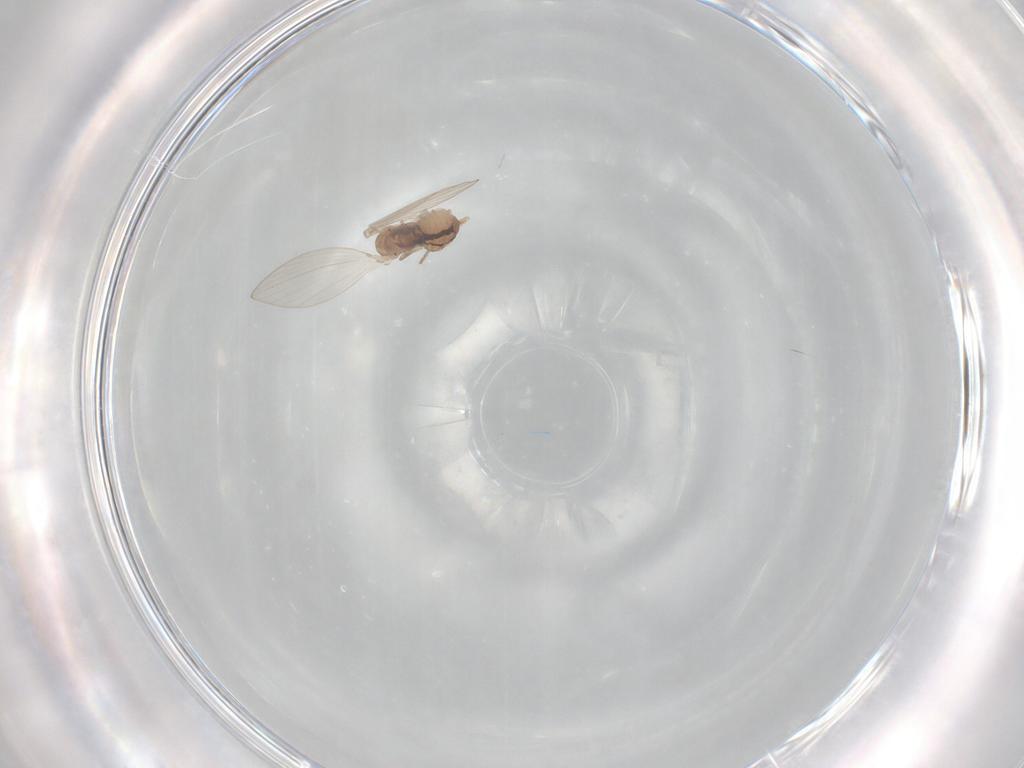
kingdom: Animalia
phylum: Arthropoda
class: Insecta
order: Diptera
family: Psychodidae
